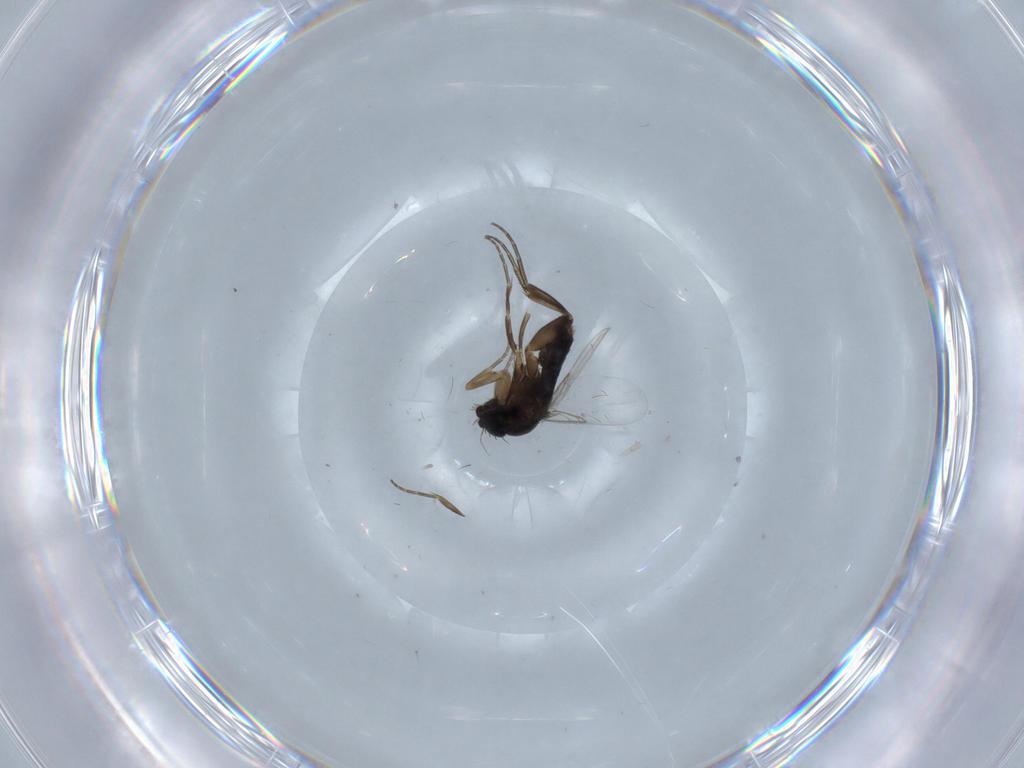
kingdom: Animalia
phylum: Arthropoda
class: Insecta
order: Diptera
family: Phoridae
